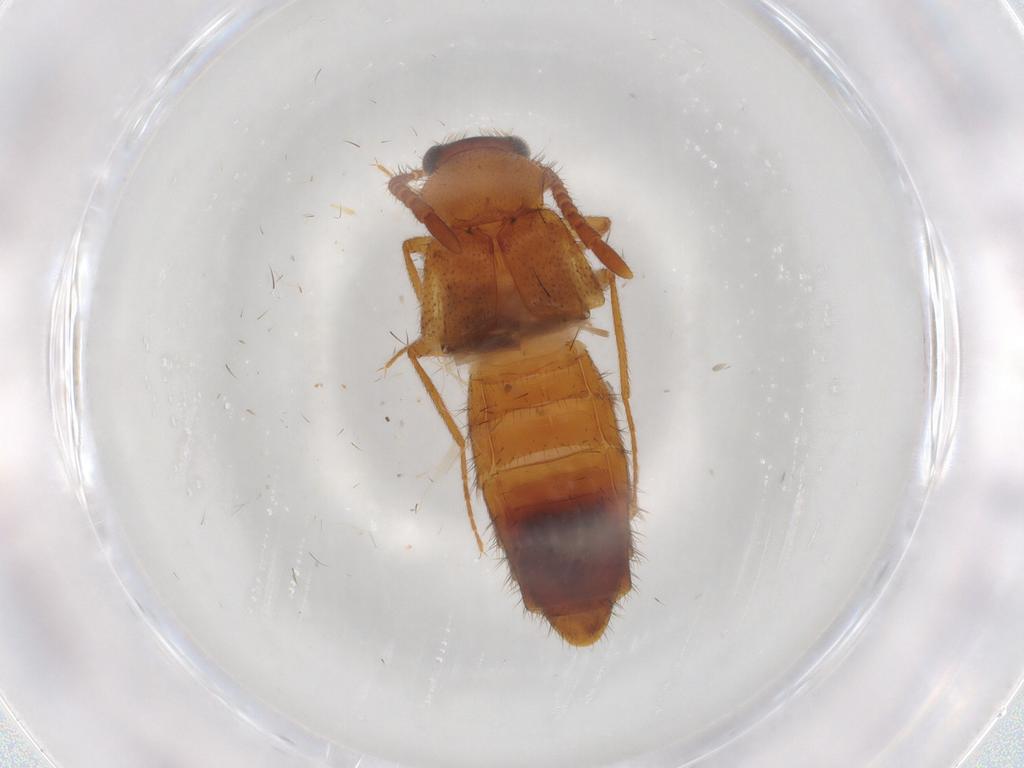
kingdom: Animalia
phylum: Arthropoda
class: Insecta
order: Coleoptera
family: Staphylinidae
